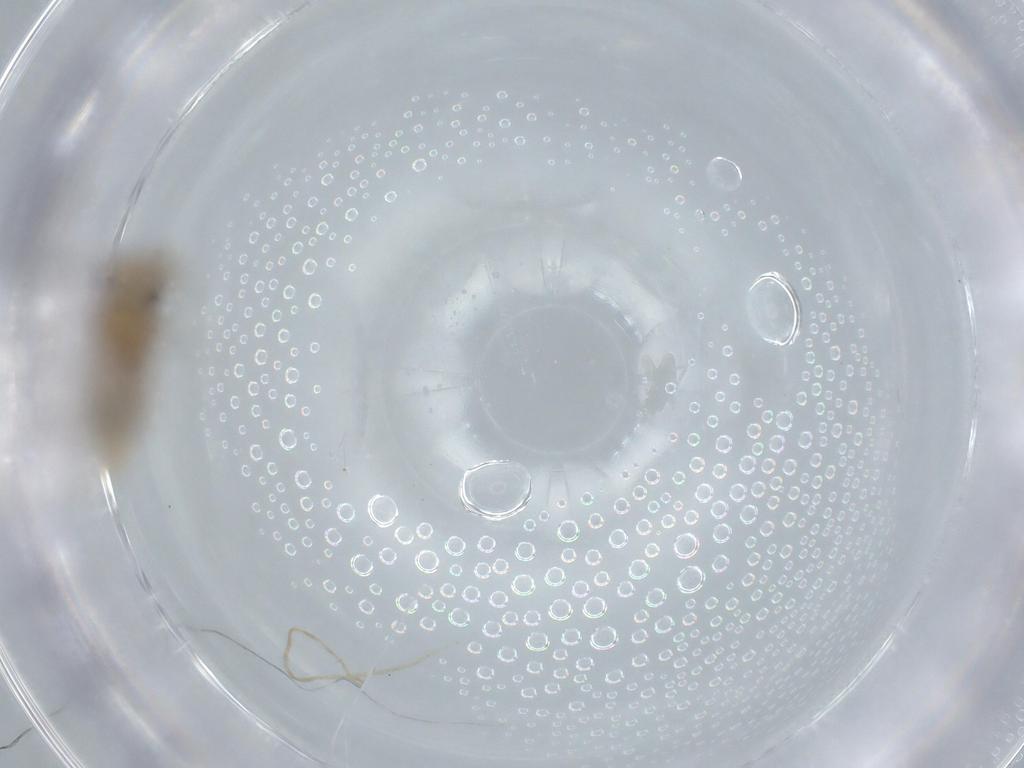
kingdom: Animalia
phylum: Arthropoda
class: Insecta
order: Psocodea
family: Caeciliusidae
